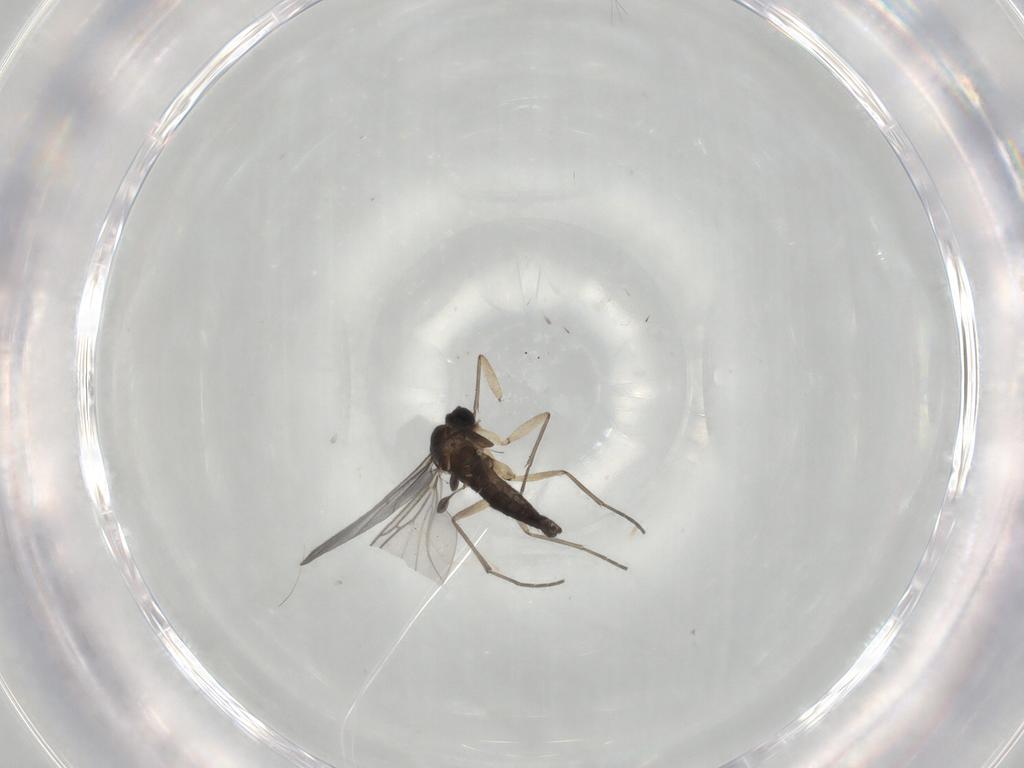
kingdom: Animalia
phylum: Arthropoda
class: Insecta
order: Diptera
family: Sciaridae
